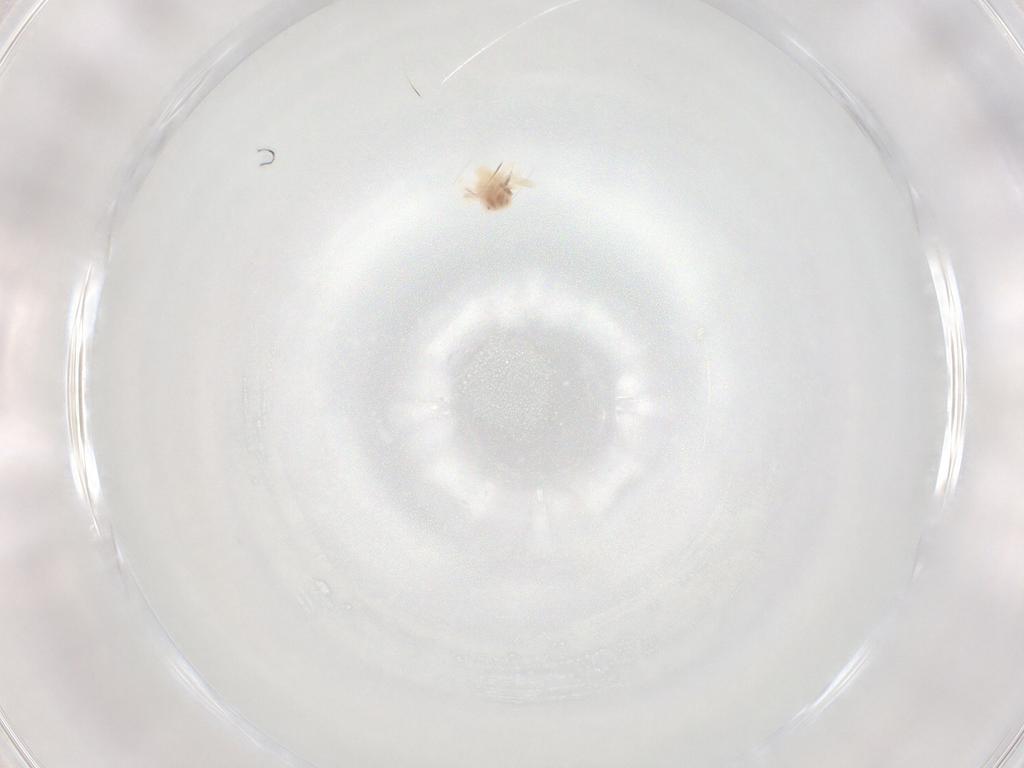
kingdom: Animalia
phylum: Arthropoda
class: Arachnida
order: Trombidiformes
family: Anystidae
